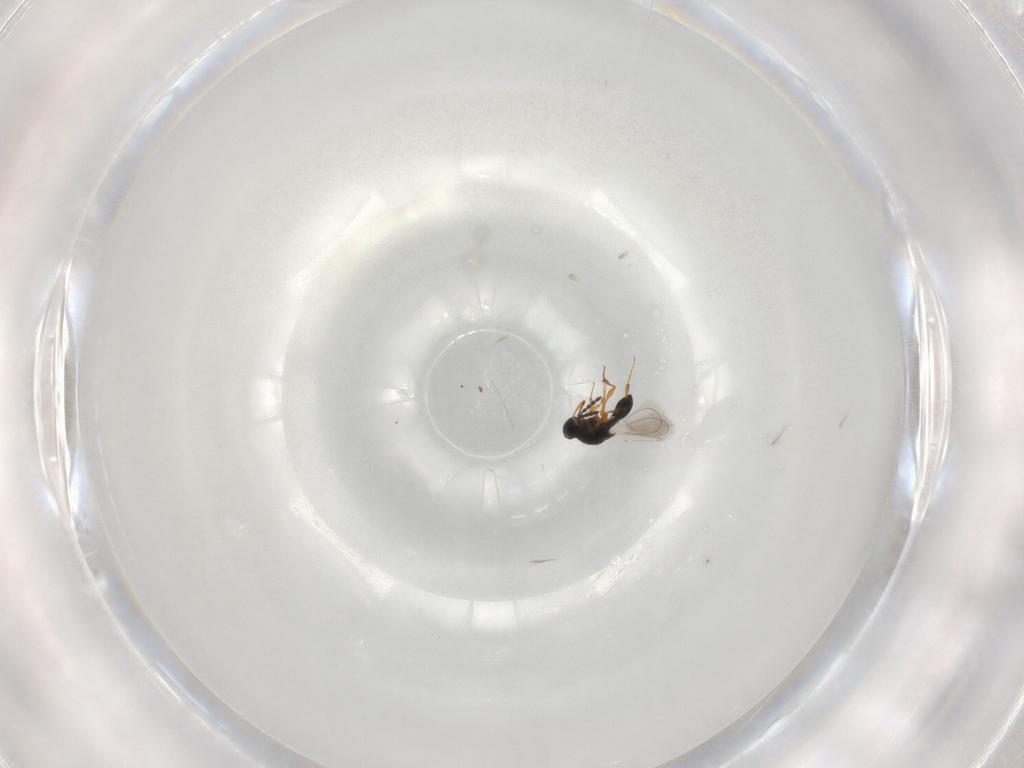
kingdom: Animalia
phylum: Arthropoda
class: Insecta
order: Hymenoptera
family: Platygastridae
